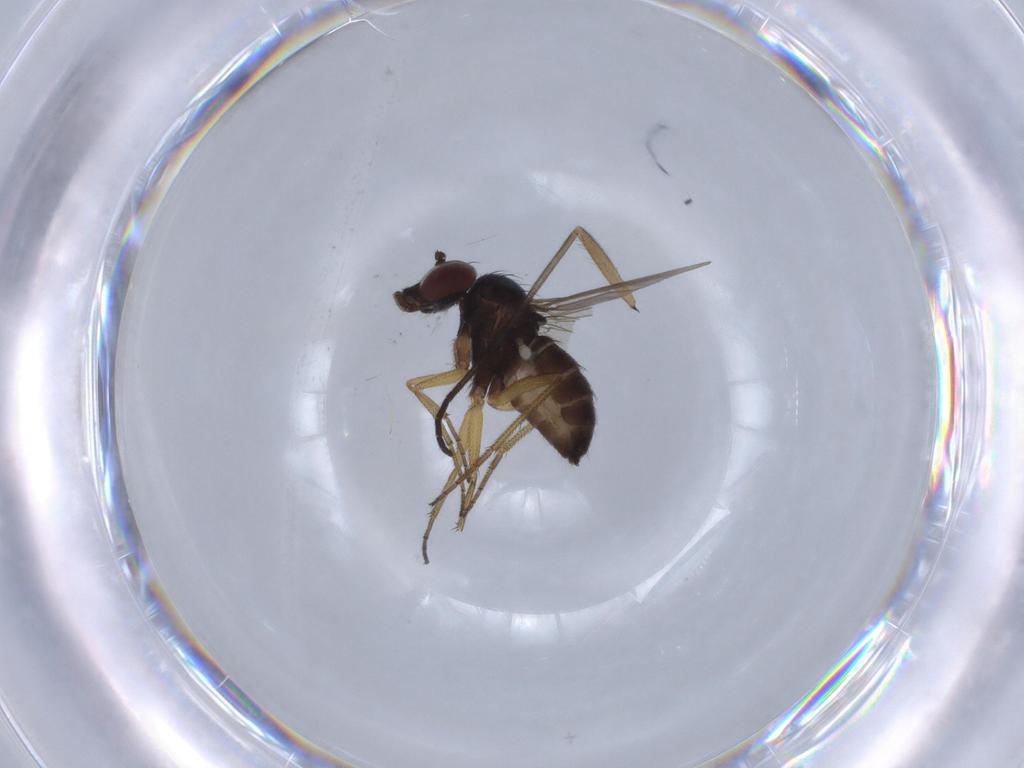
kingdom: Animalia
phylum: Arthropoda
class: Insecta
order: Diptera
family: Dolichopodidae
